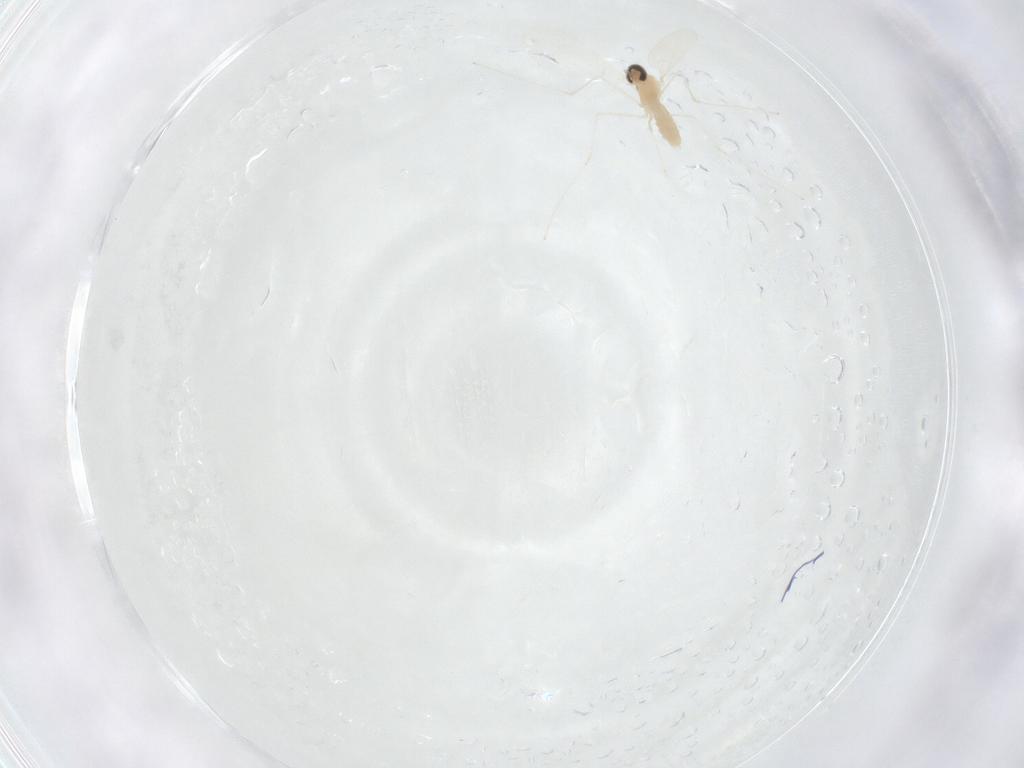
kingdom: Animalia
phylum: Arthropoda
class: Insecta
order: Diptera
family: Cecidomyiidae
